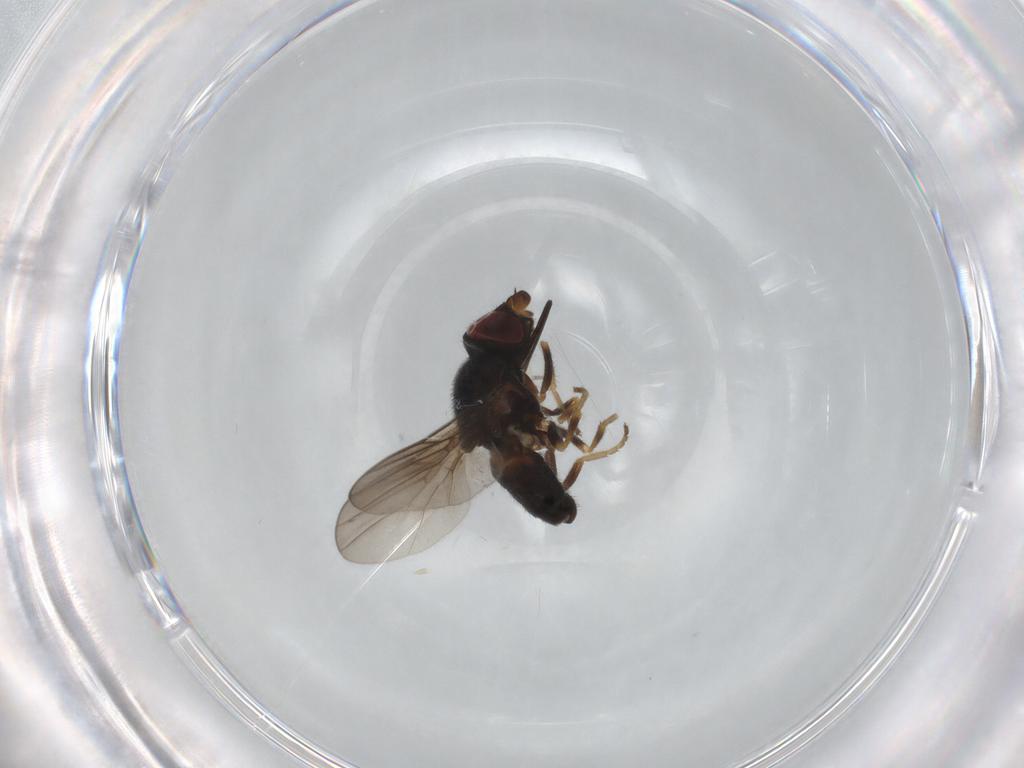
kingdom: Animalia
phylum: Arthropoda
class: Insecta
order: Diptera
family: Chloropidae
